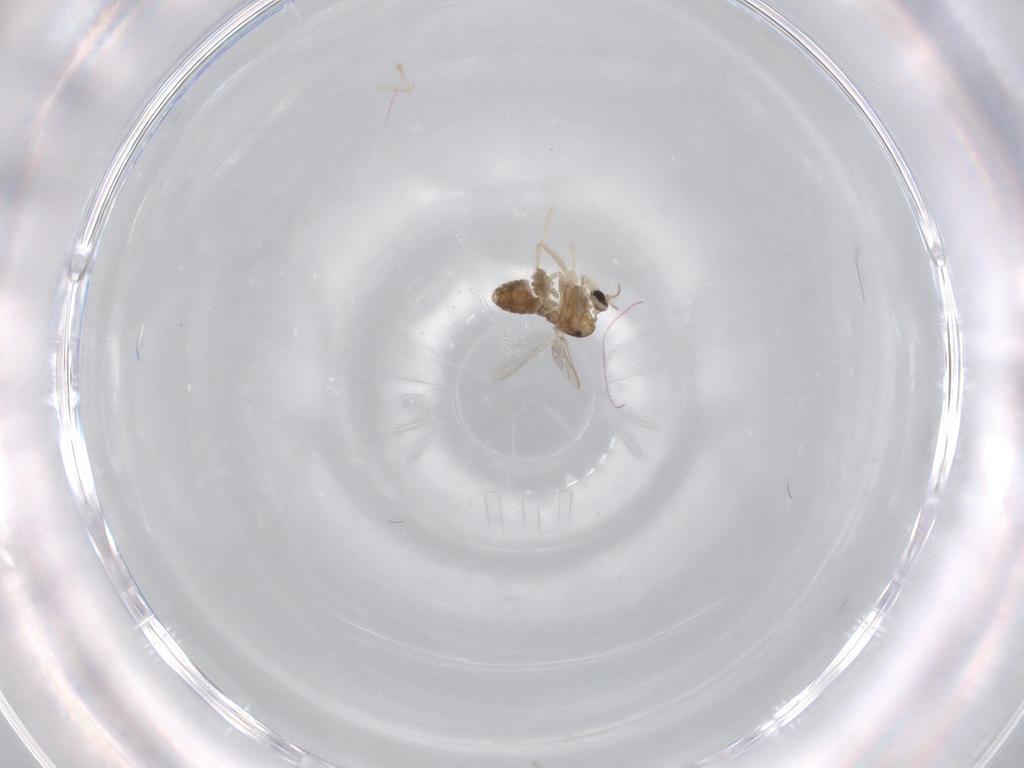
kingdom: Animalia
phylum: Arthropoda
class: Insecta
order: Diptera
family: Chironomidae
